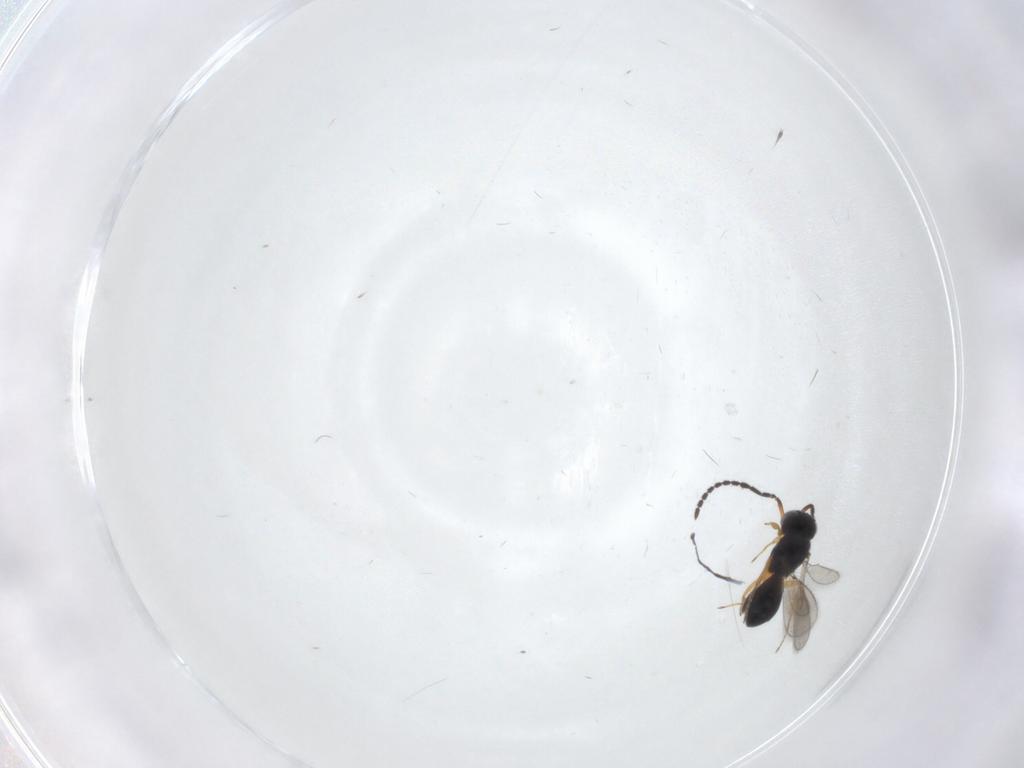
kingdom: Animalia
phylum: Arthropoda
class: Insecta
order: Hymenoptera
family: Scelionidae
